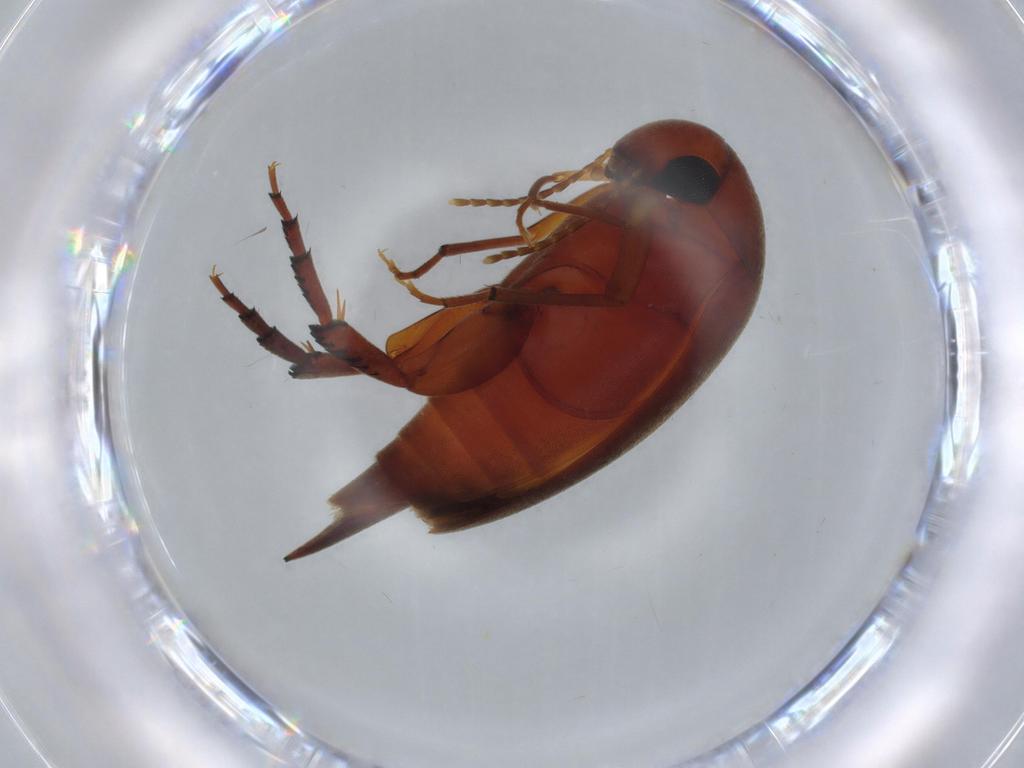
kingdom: Animalia
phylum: Arthropoda
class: Insecta
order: Coleoptera
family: Mordellidae
